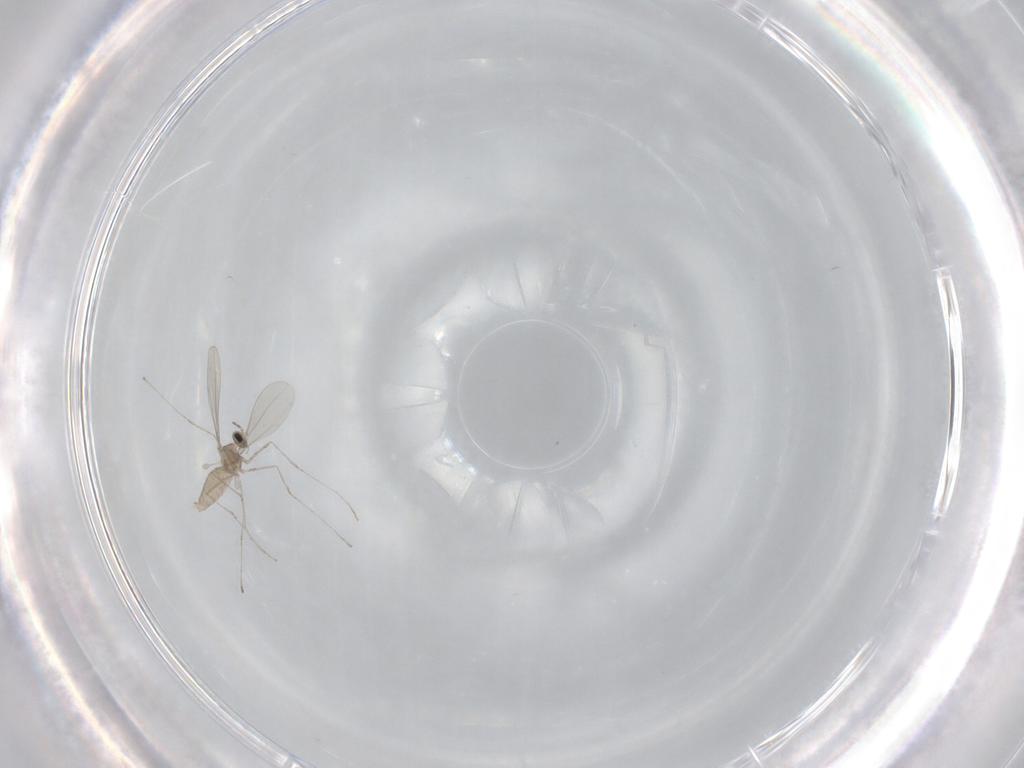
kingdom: Animalia
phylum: Arthropoda
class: Insecta
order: Diptera
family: Cecidomyiidae
